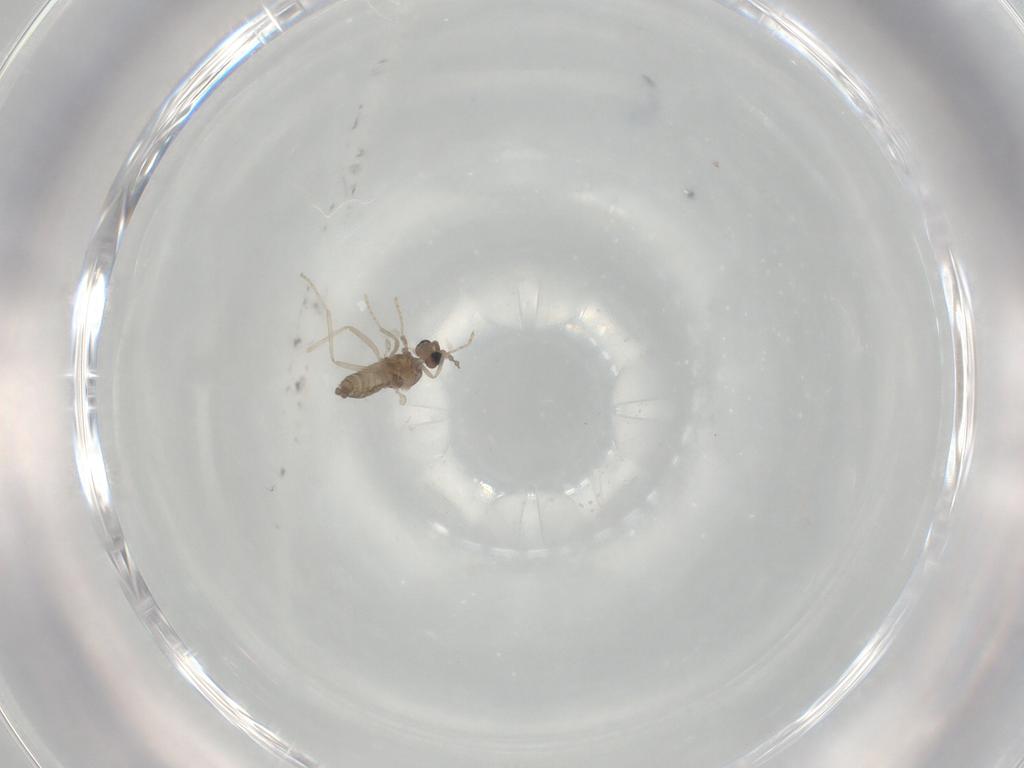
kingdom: Animalia
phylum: Arthropoda
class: Insecta
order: Diptera
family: Cecidomyiidae
